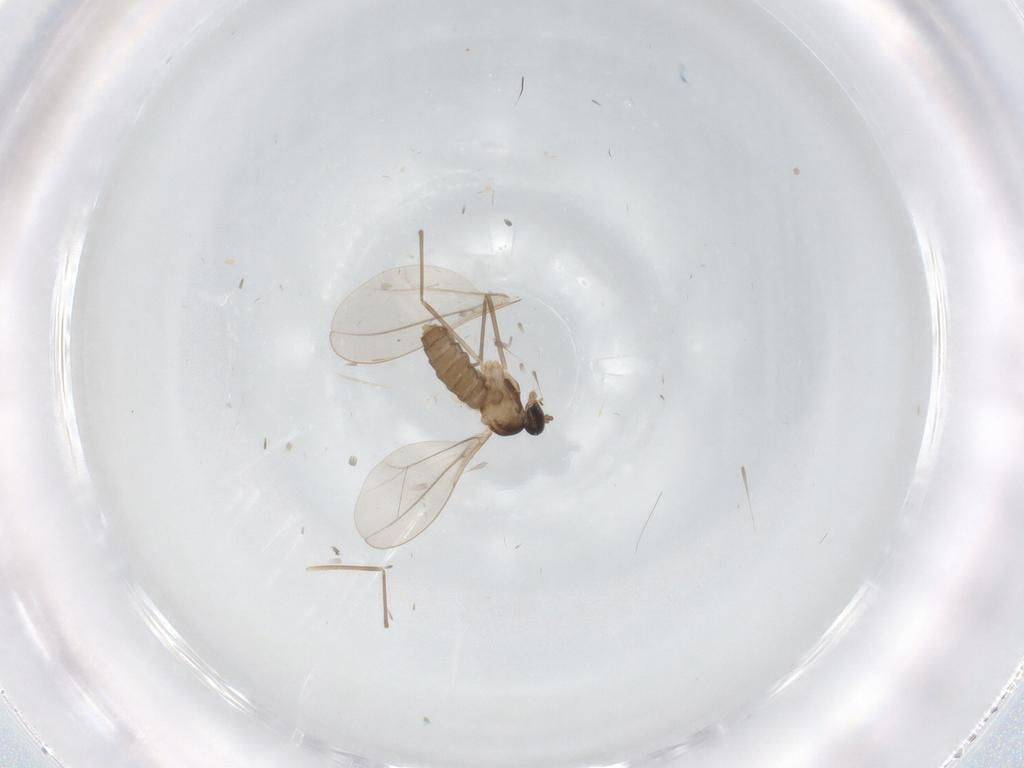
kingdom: Animalia
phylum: Arthropoda
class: Insecta
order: Diptera
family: Cecidomyiidae
